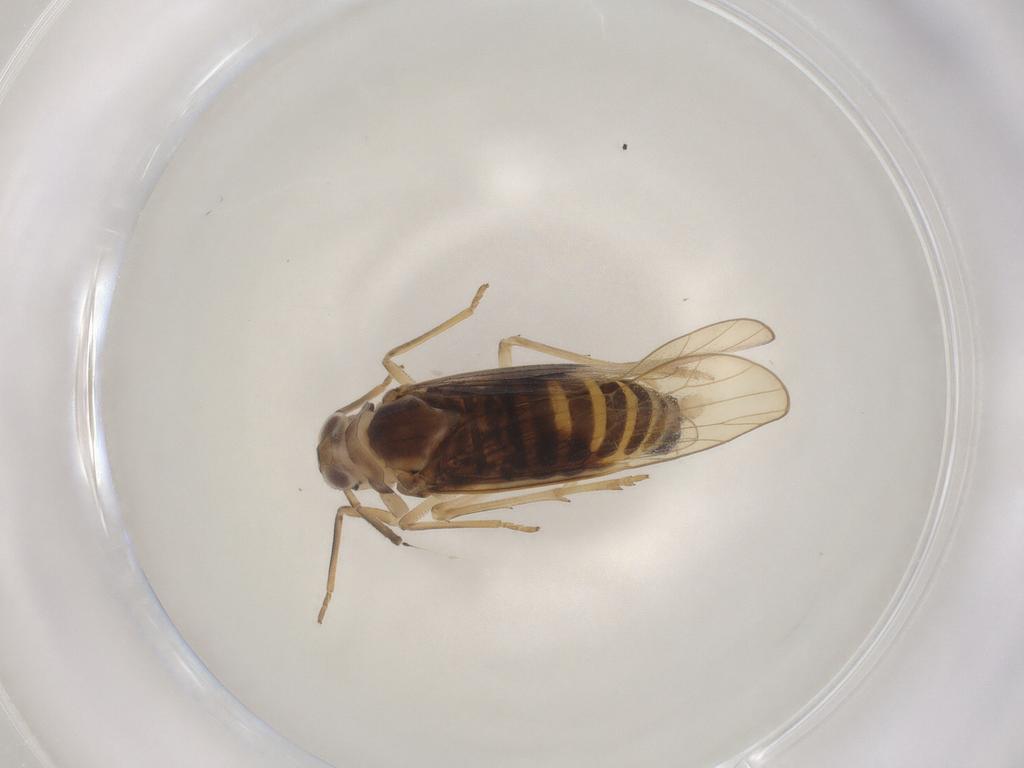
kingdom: Animalia
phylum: Arthropoda
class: Insecta
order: Hemiptera
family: Delphacidae
